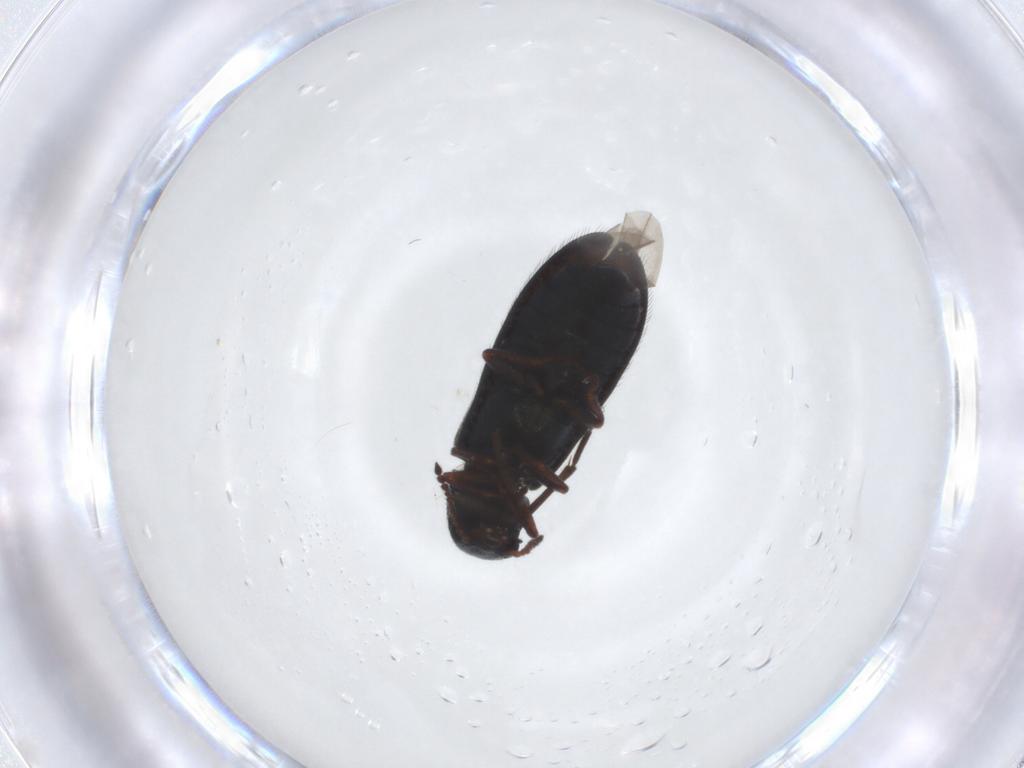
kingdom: Animalia
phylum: Arthropoda
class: Insecta
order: Coleoptera
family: Melyridae
